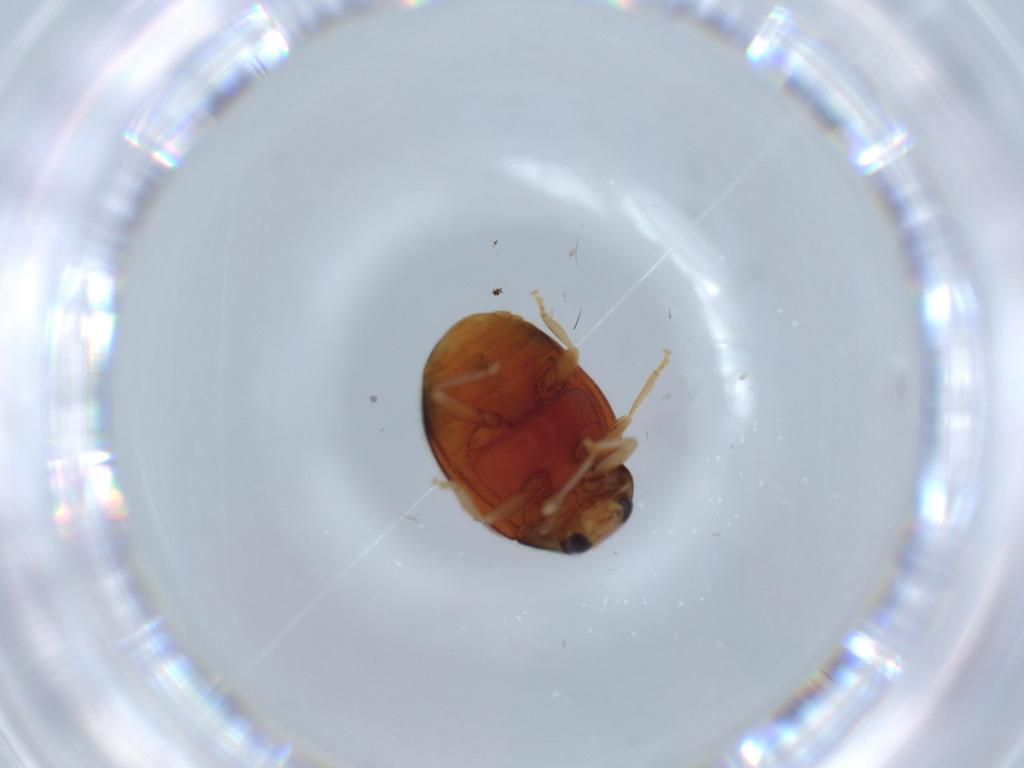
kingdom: Animalia
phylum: Arthropoda
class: Insecta
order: Coleoptera
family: Coccinellidae
